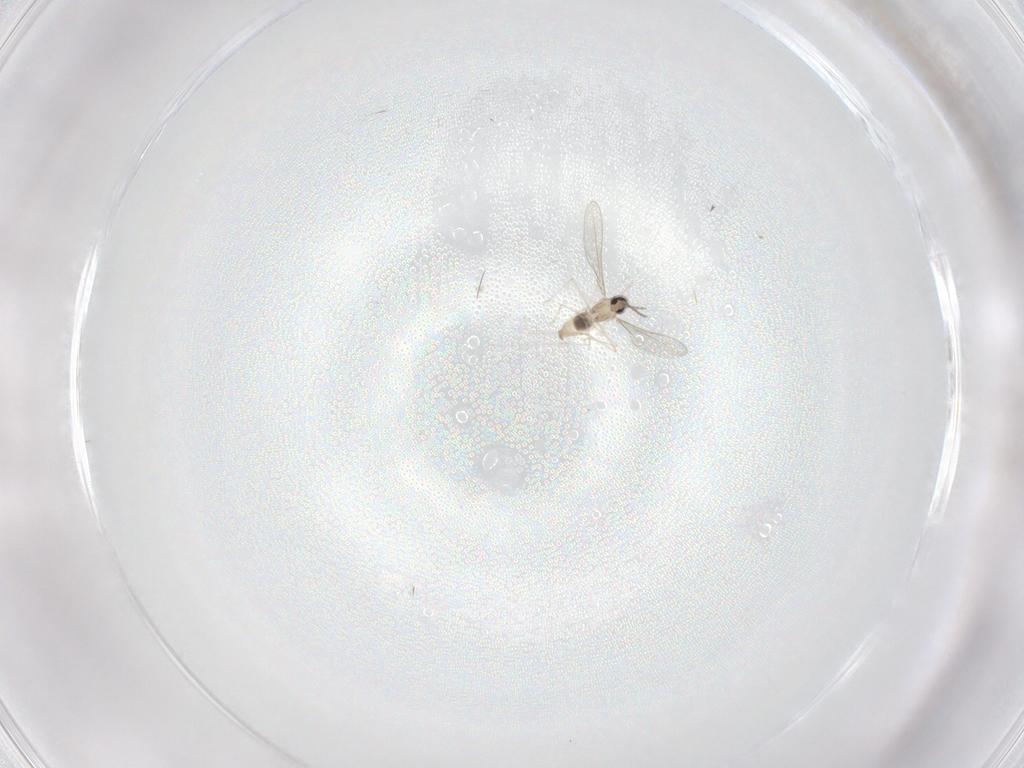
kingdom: Animalia
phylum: Arthropoda
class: Insecta
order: Diptera
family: Cecidomyiidae
